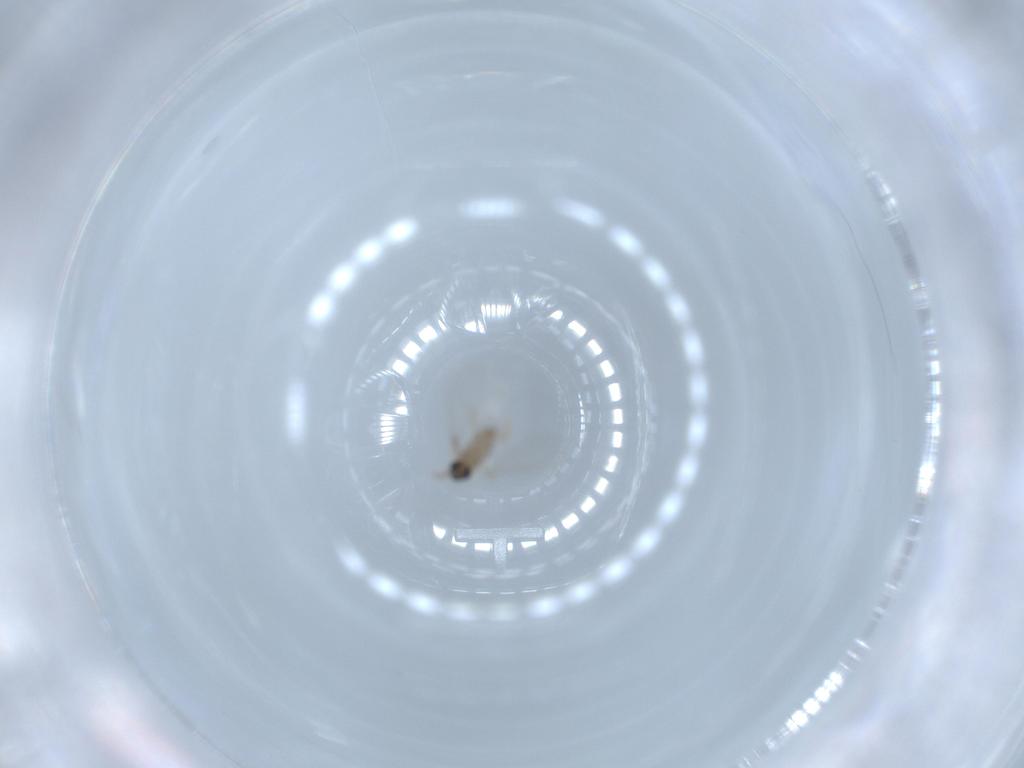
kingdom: Animalia
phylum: Arthropoda
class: Insecta
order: Diptera
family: Cecidomyiidae
